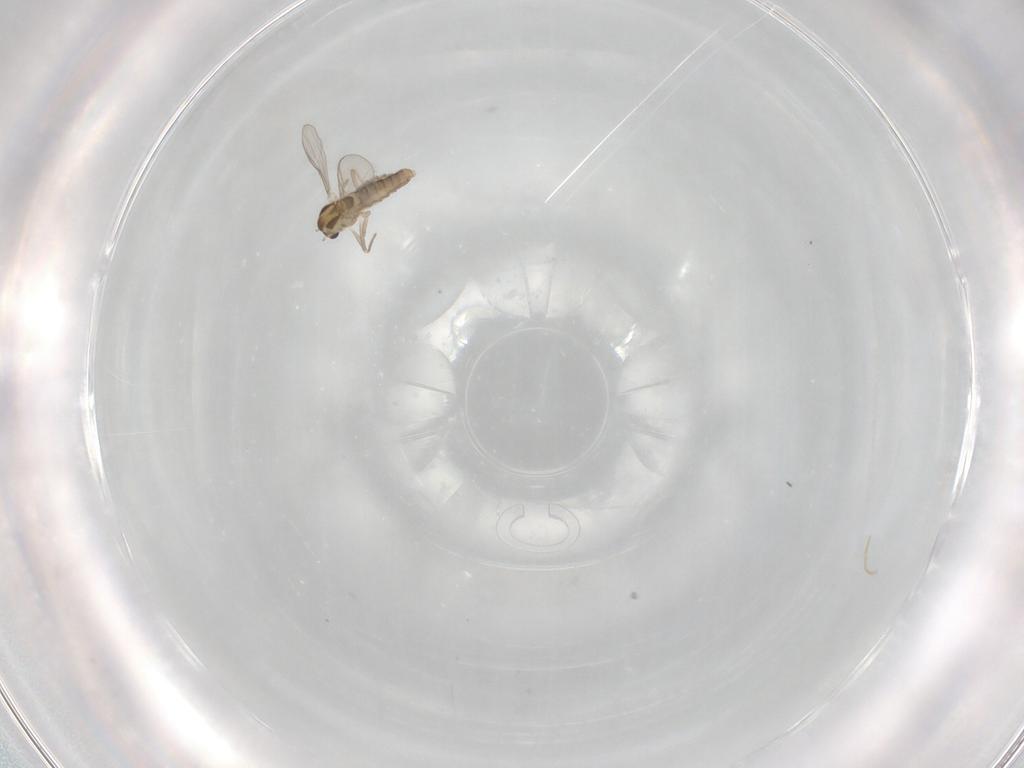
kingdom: Animalia
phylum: Arthropoda
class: Insecta
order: Diptera
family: Chironomidae
